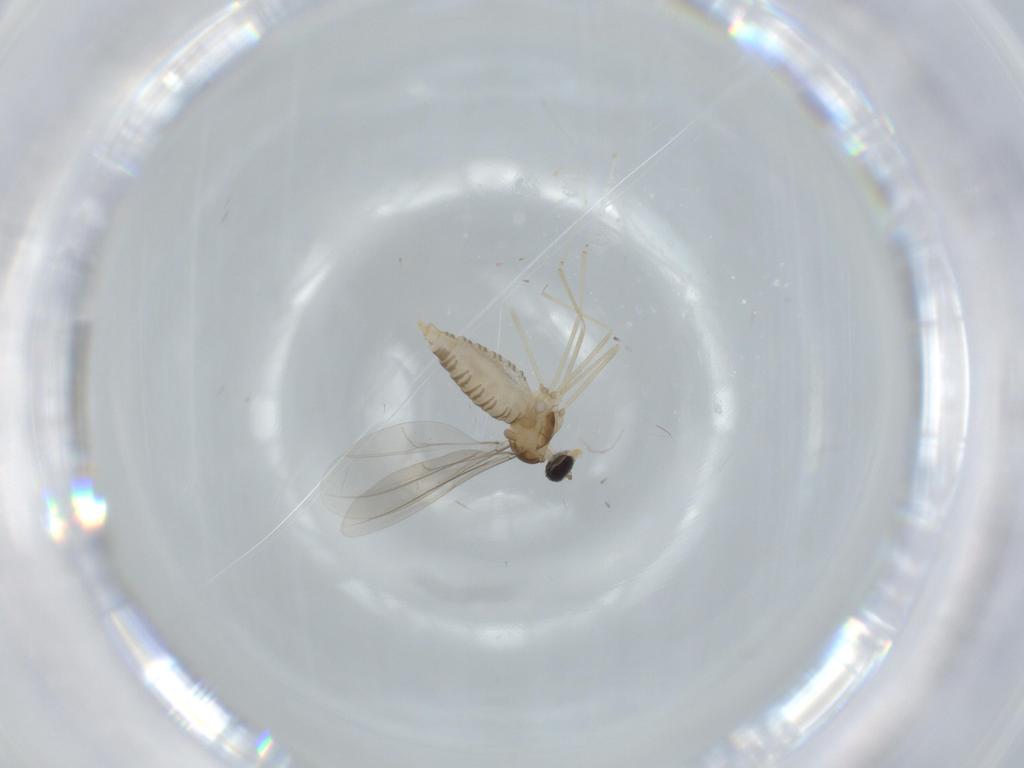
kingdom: Animalia
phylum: Arthropoda
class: Insecta
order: Diptera
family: Cecidomyiidae
